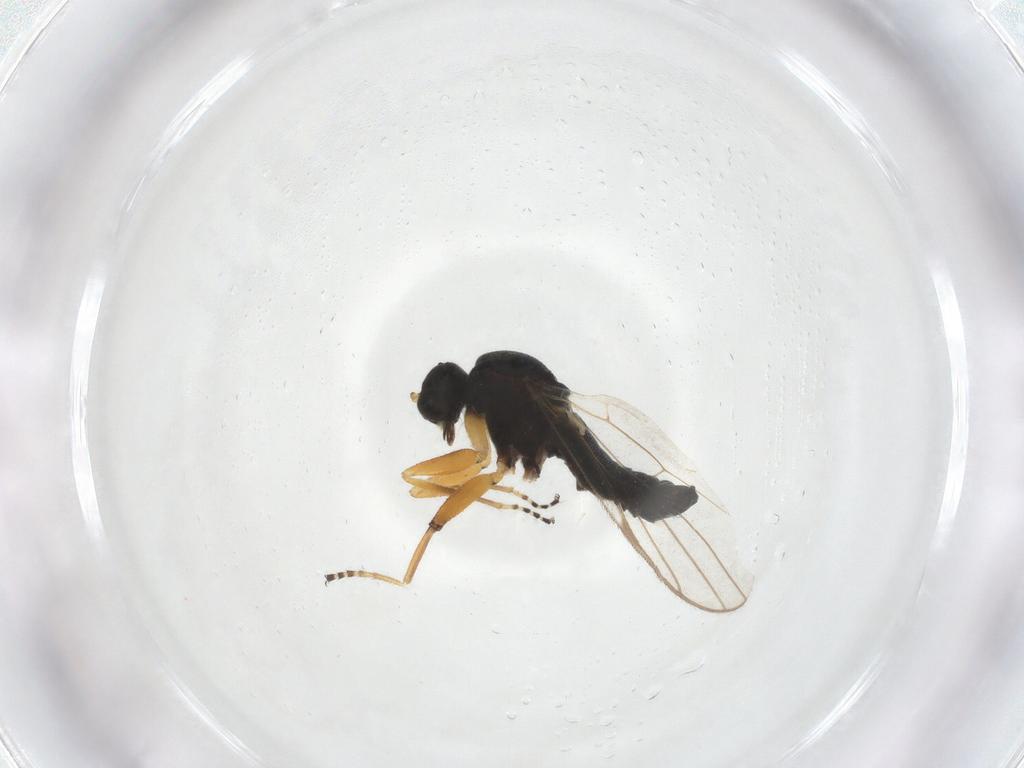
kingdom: Animalia
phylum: Arthropoda
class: Insecta
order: Diptera
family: Hybotidae
